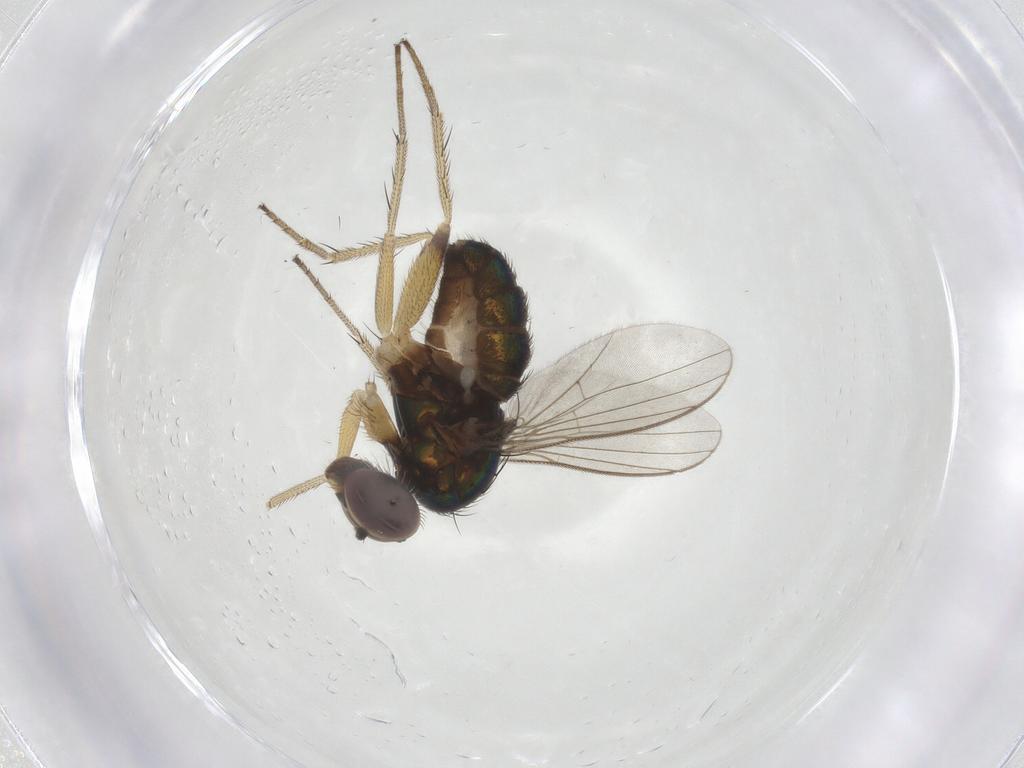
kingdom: Animalia
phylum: Arthropoda
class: Insecta
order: Diptera
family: Dolichopodidae
